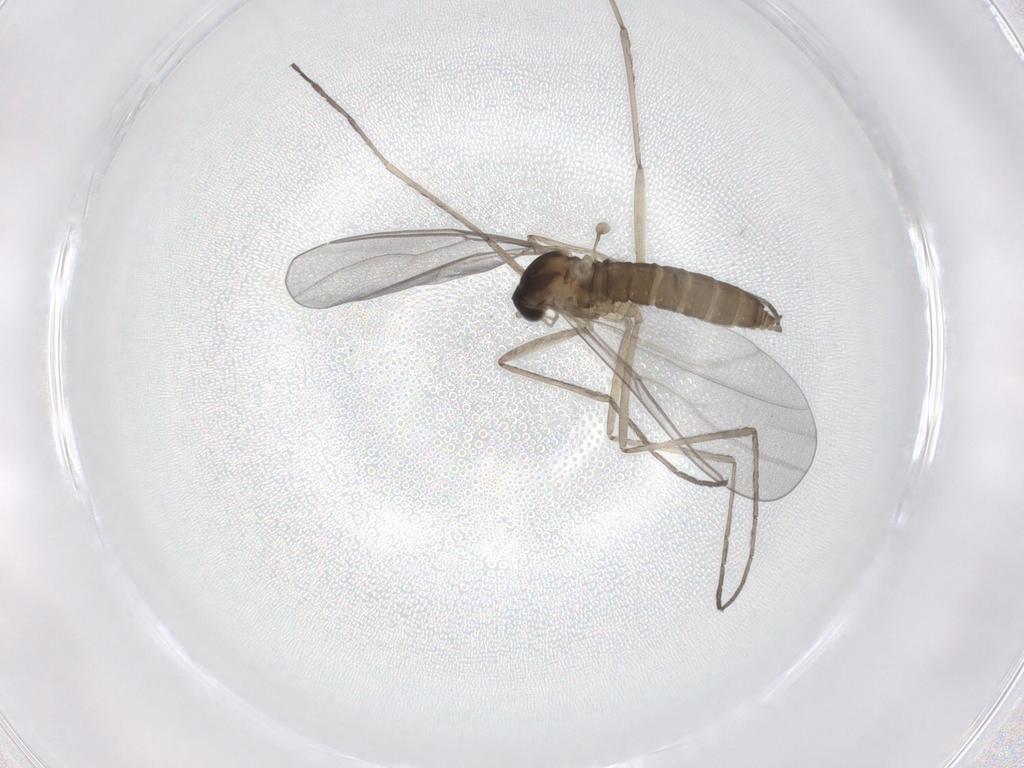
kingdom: Animalia
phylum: Arthropoda
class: Insecta
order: Diptera
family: Cecidomyiidae
